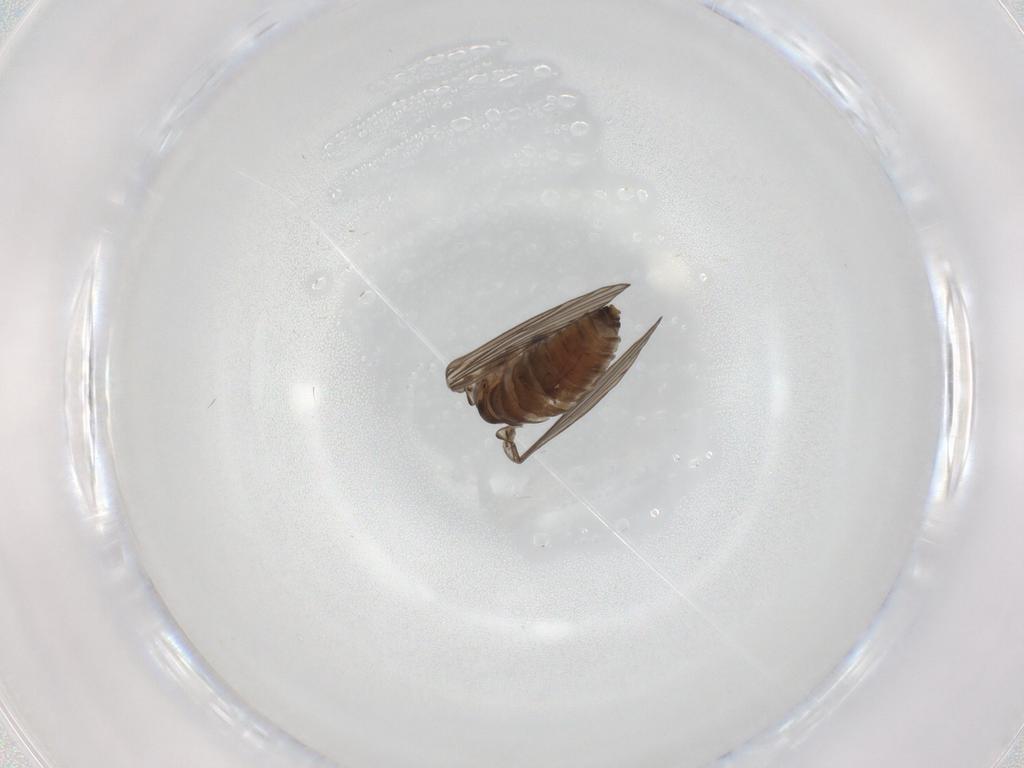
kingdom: Animalia
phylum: Arthropoda
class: Insecta
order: Diptera
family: Psychodidae
